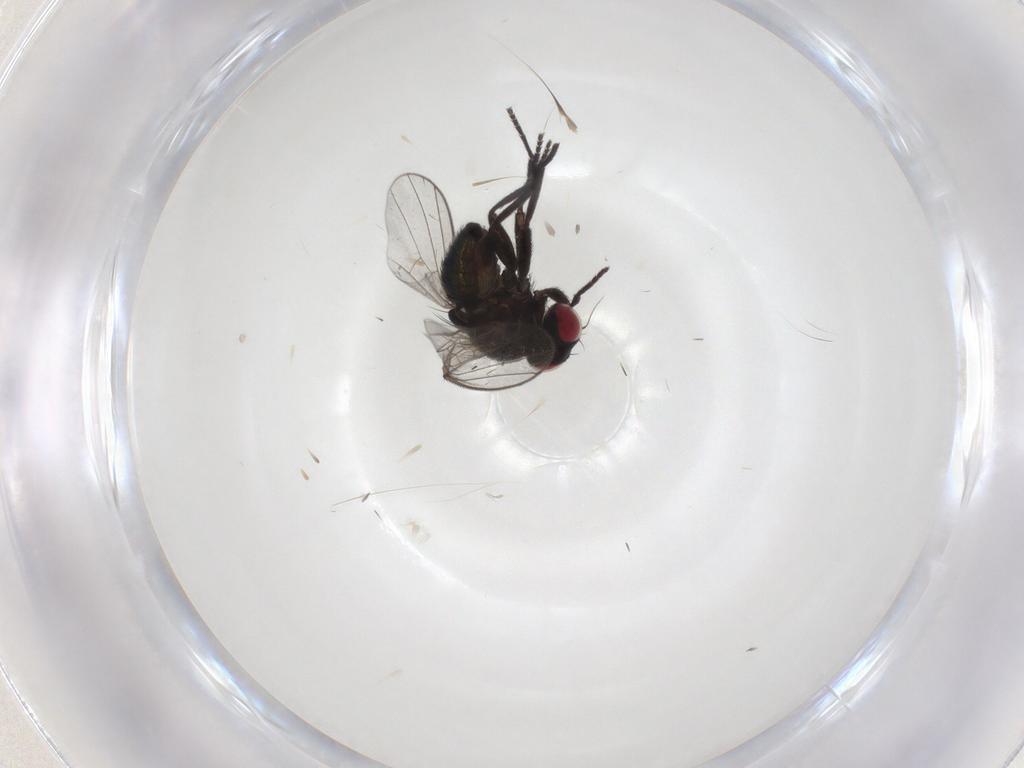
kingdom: Animalia
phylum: Arthropoda
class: Insecta
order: Diptera
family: Agromyzidae
